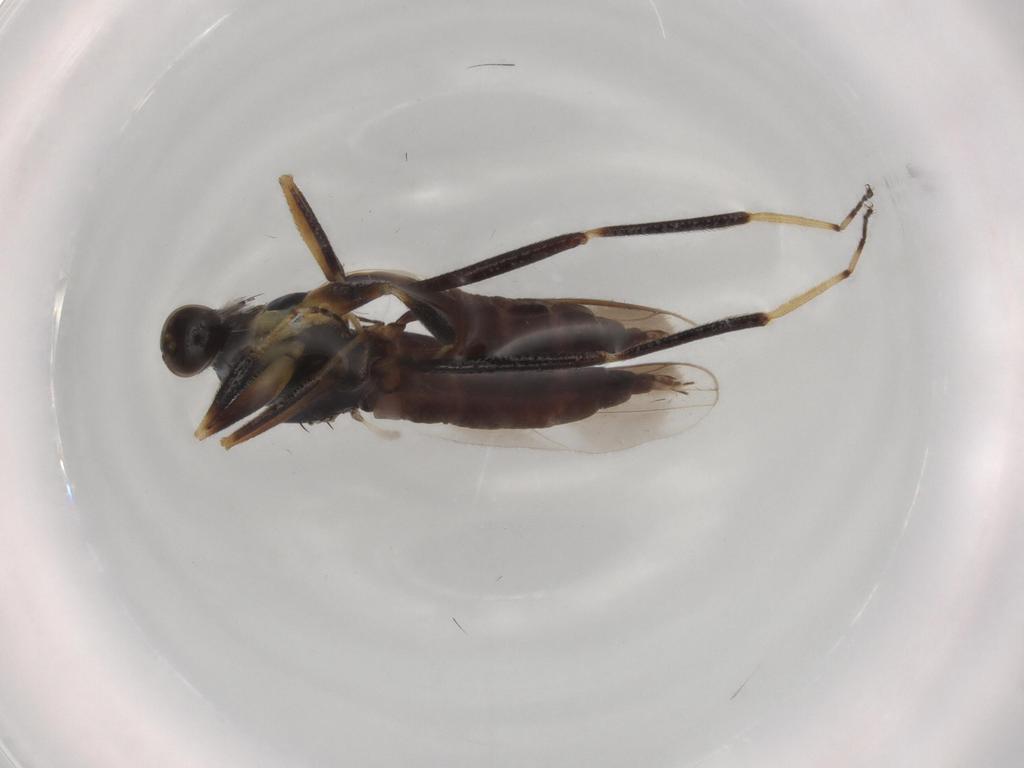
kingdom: Animalia
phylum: Arthropoda
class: Insecta
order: Diptera
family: Hybotidae
